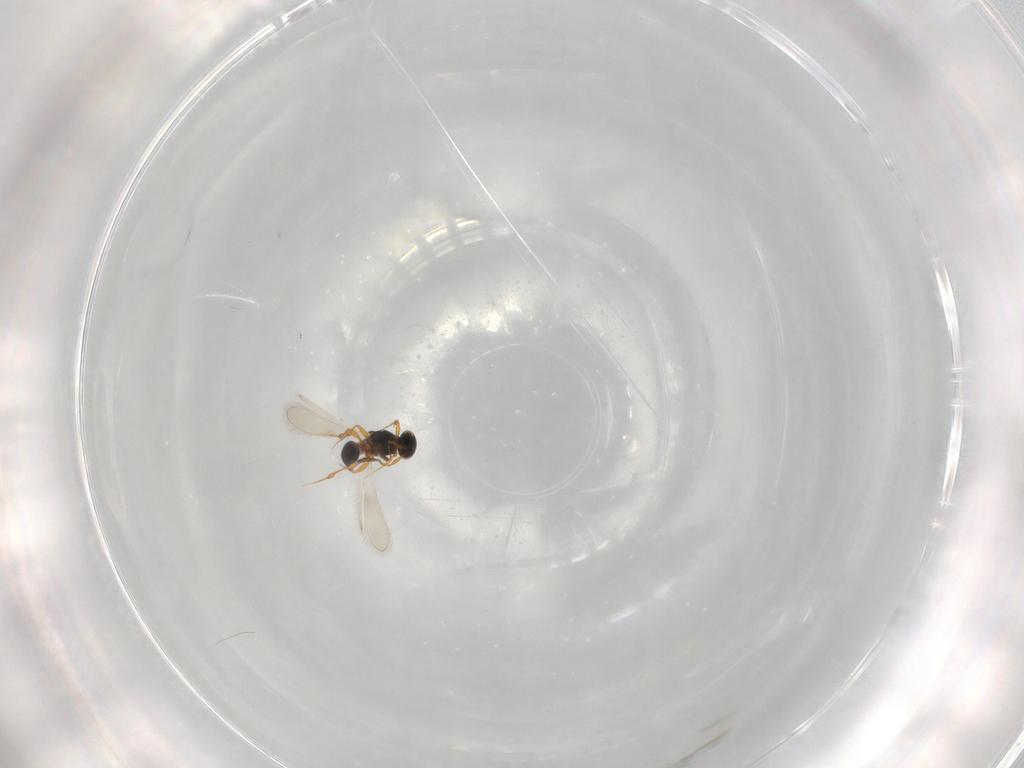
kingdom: Animalia
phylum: Arthropoda
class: Insecta
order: Hymenoptera
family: Platygastridae
